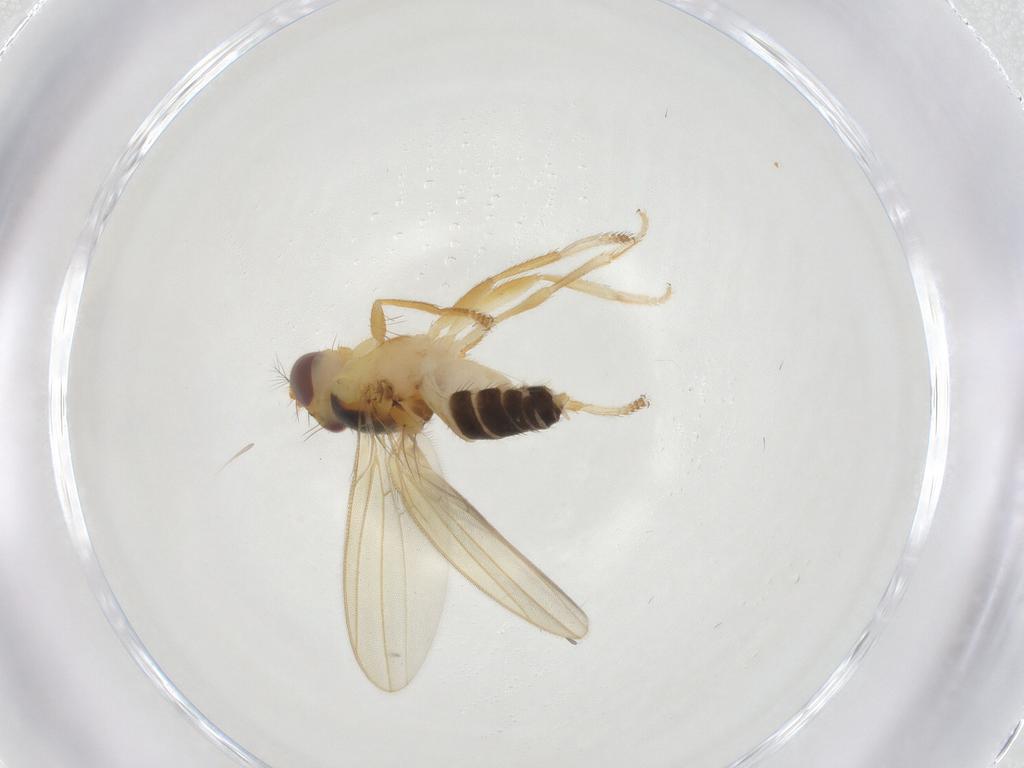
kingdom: Animalia
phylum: Arthropoda
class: Insecta
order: Diptera
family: Periscelididae
